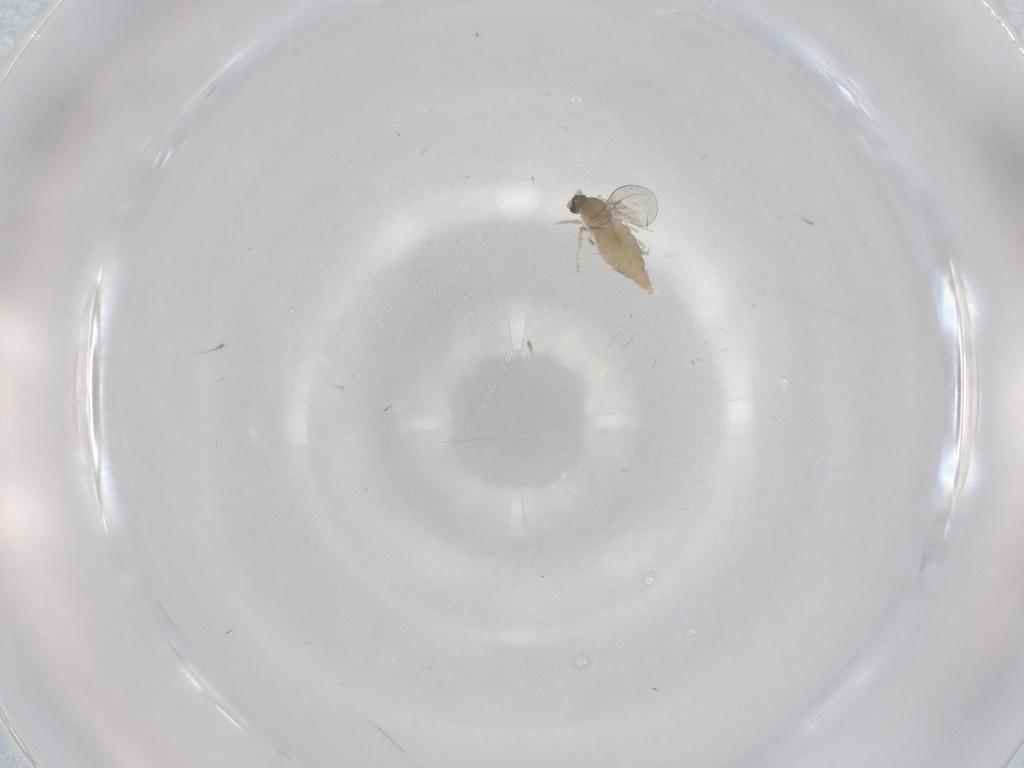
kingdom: Animalia
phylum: Arthropoda
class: Insecta
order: Diptera
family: Cecidomyiidae
